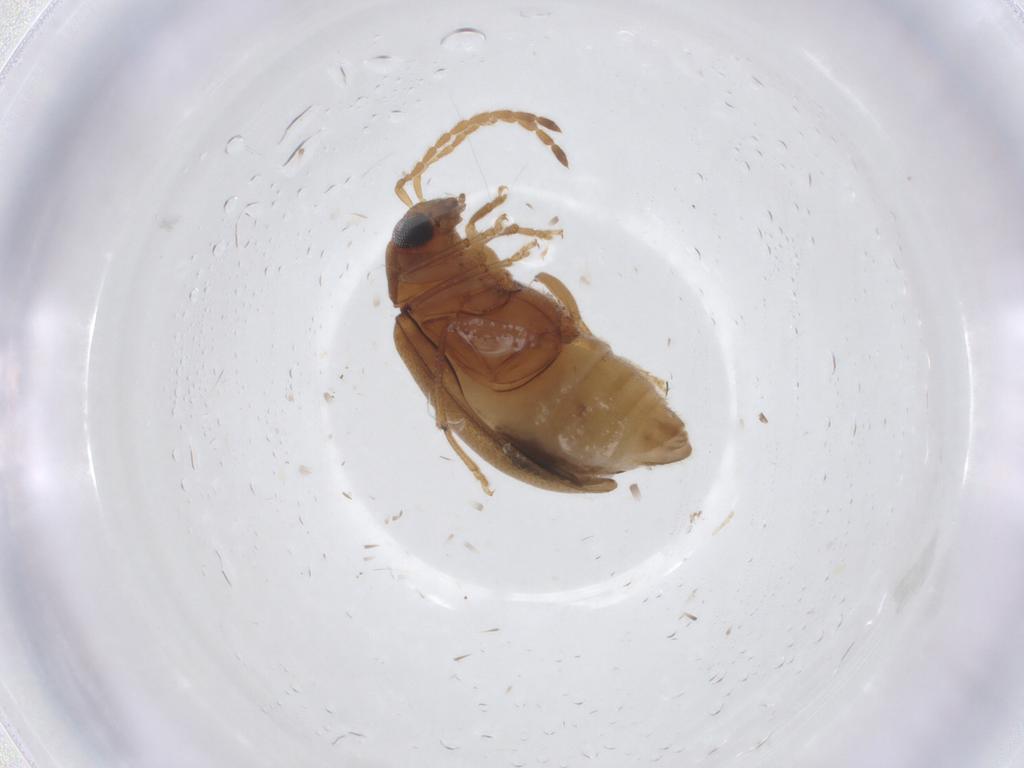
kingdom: Animalia
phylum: Arthropoda
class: Insecta
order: Coleoptera
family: Chrysomelidae
